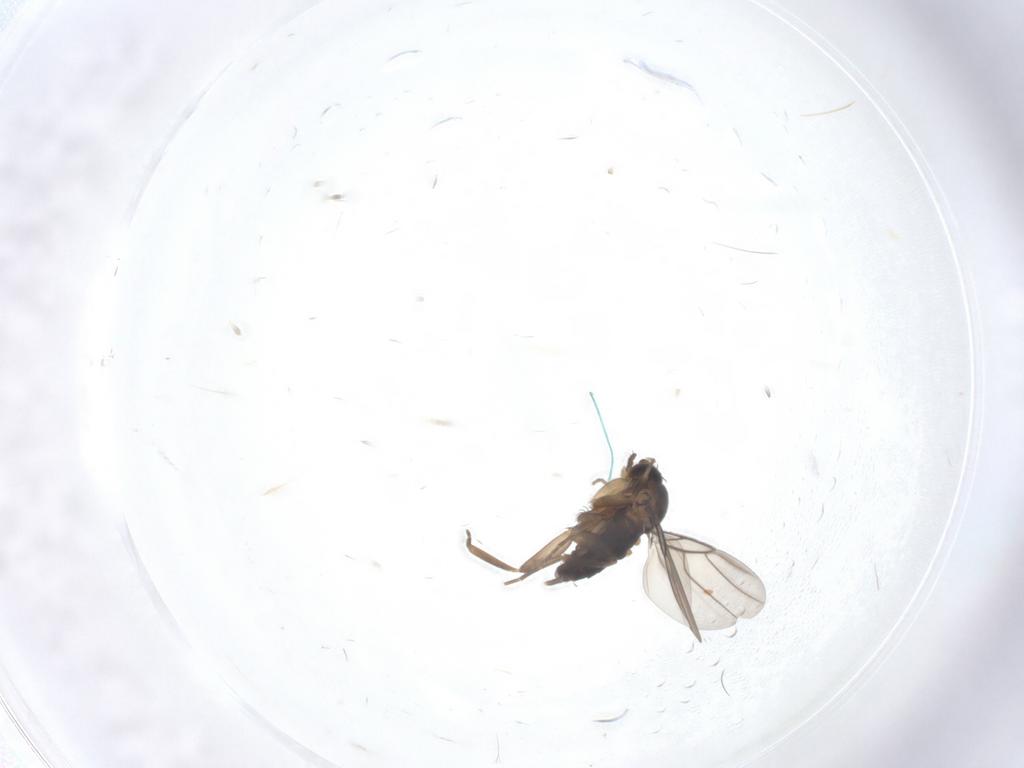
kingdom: Animalia
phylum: Arthropoda
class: Insecta
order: Diptera
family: Phoridae
